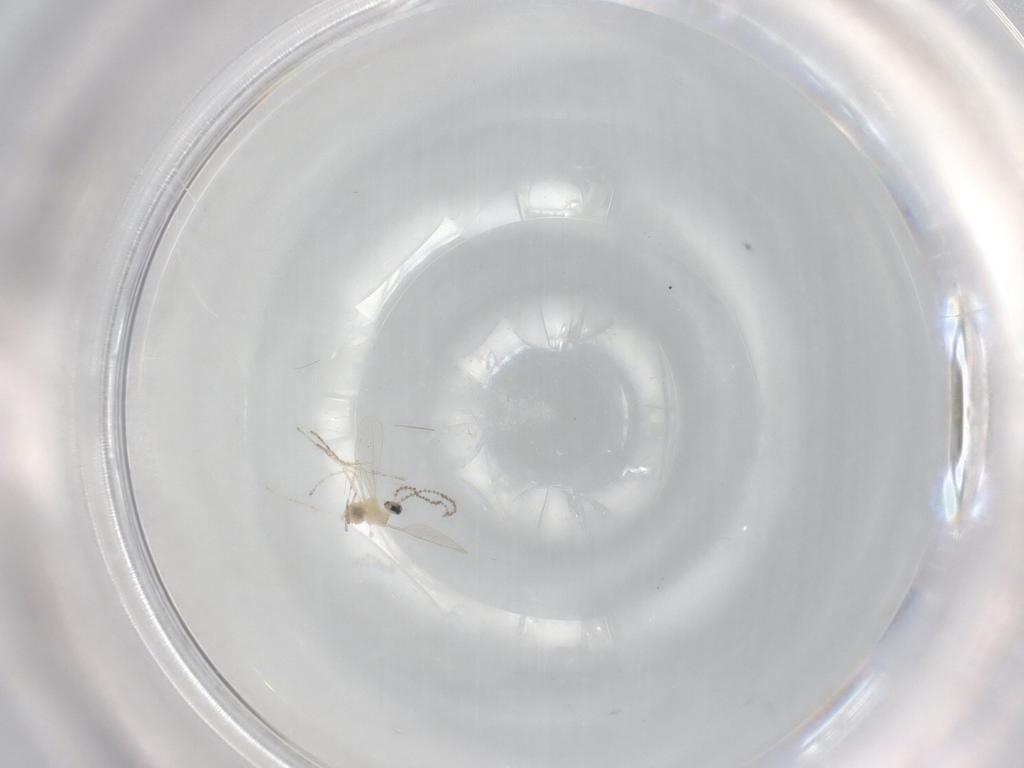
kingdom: Animalia
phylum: Arthropoda
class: Insecta
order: Diptera
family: Cecidomyiidae
